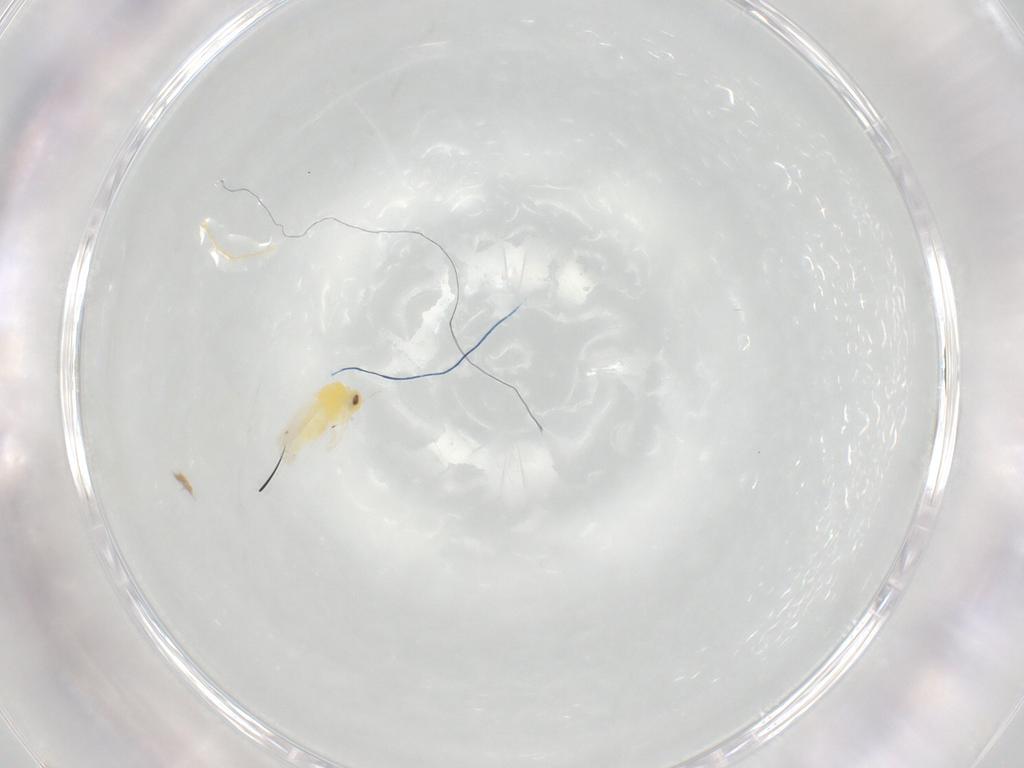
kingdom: Animalia
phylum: Arthropoda
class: Insecta
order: Hemiptera
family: Aleyrodidae
